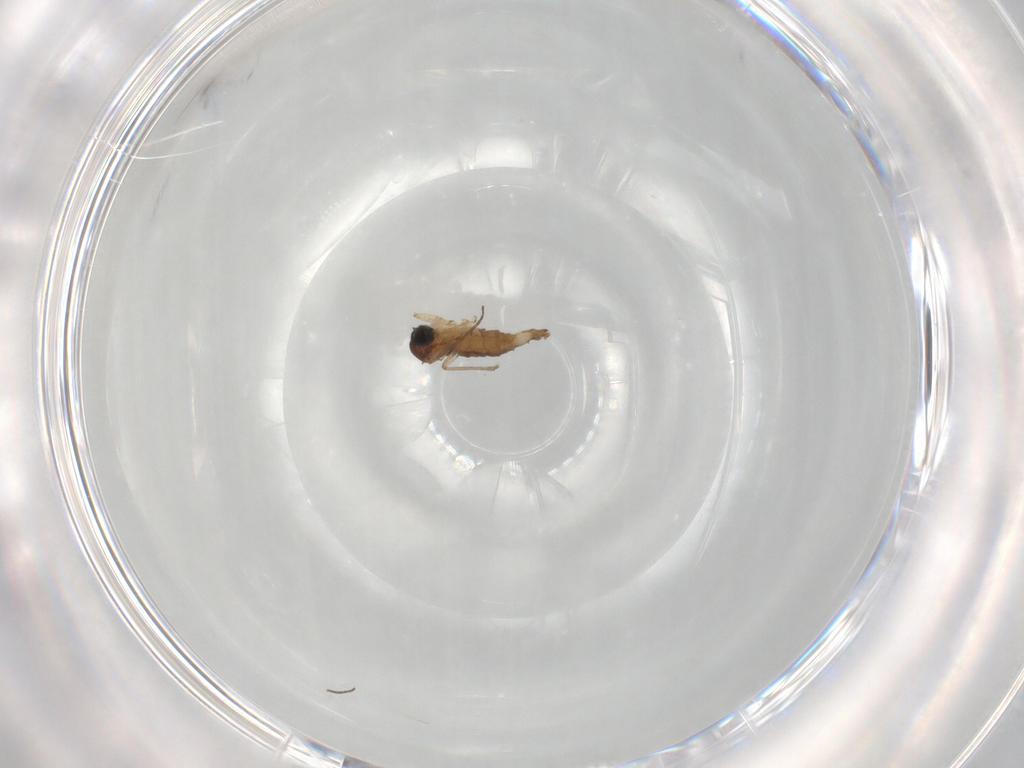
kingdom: Animalia
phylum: Arthropoda
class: Insecta
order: Diptera
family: Sciaridae
